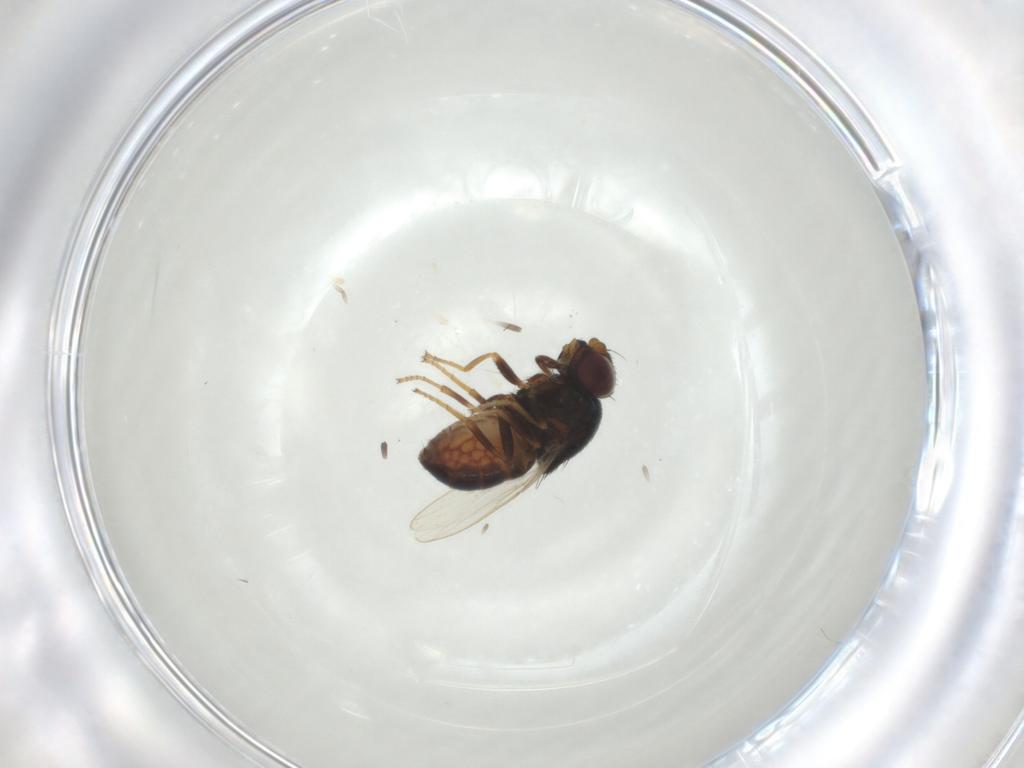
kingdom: Animalia
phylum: Arthropoda
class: Insecta
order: Diptera
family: Chloropidae
